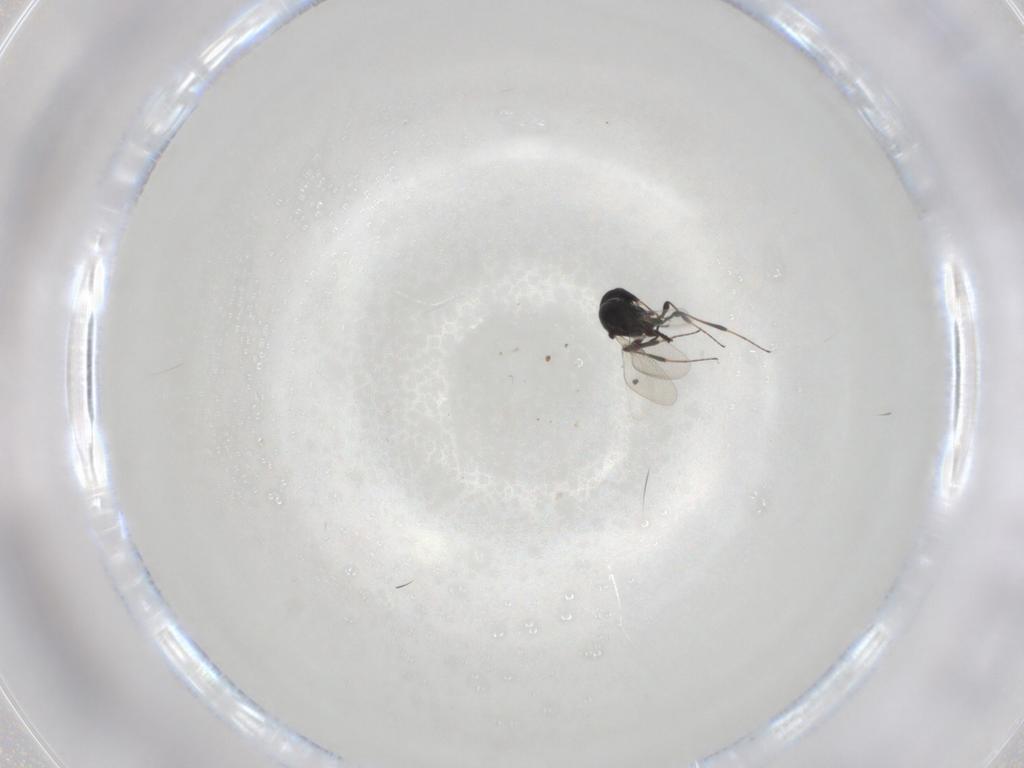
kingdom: Animalia
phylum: Arthropoda
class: Insecta
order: Hymenoptera
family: Platygastridae
